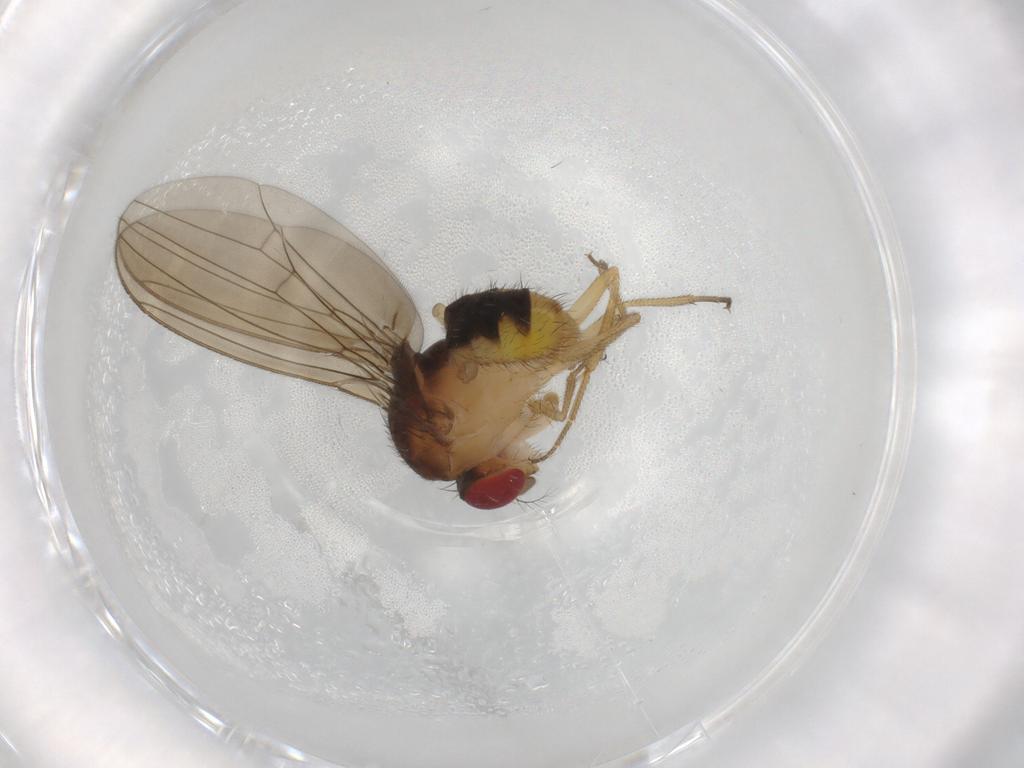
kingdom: Animalia
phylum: Arthropoda
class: Insecta
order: Diptera
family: Drosophilidae
